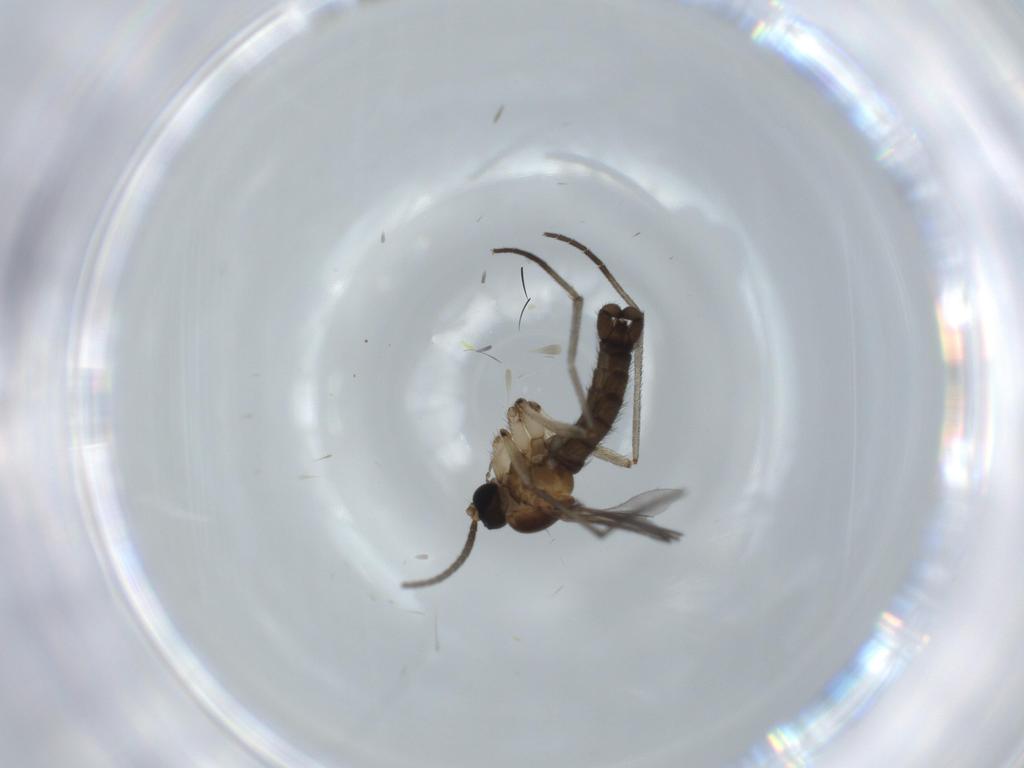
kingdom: Animalia
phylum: Arthropoda
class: Insecta
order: Diptera
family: Sciaridae
